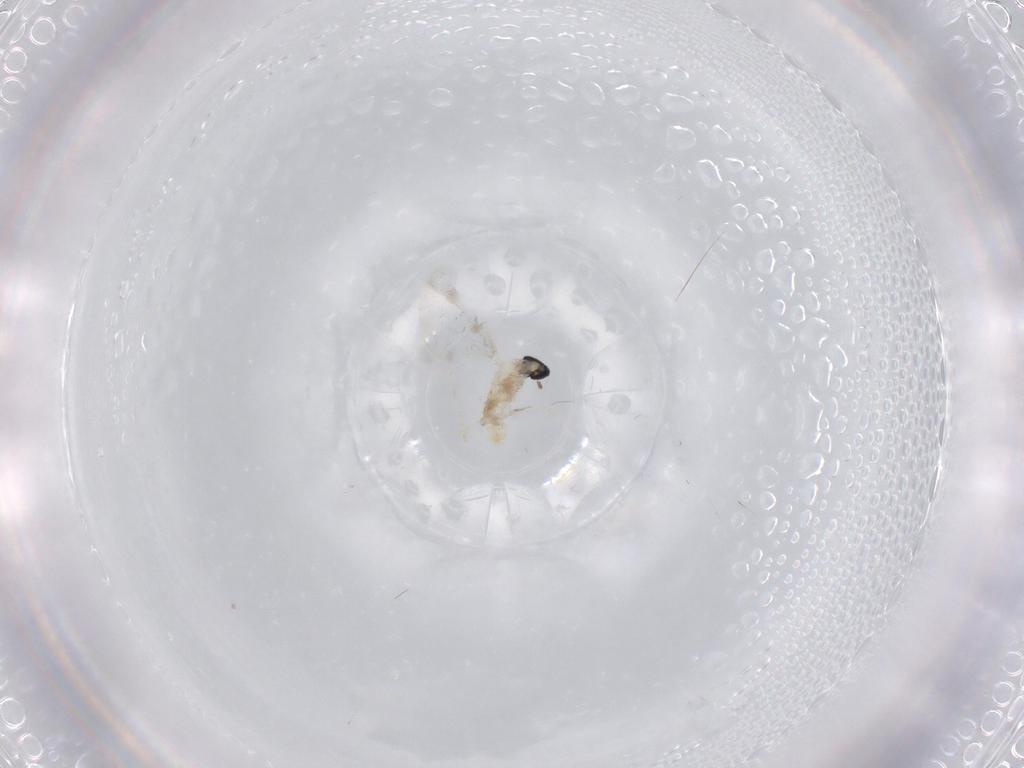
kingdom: Animalia
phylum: Arthropoda
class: Insecta
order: Diptera
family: Cecidomyiidae
